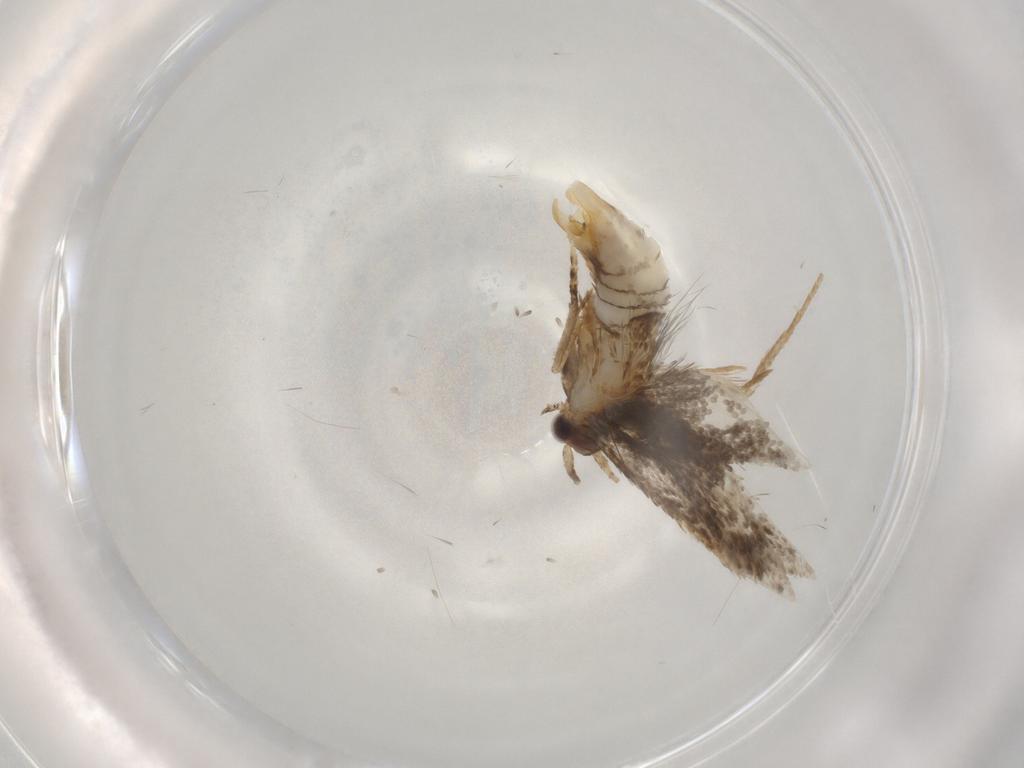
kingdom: Animalia
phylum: Arthropoda
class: Insecta
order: Lepidoptera
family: Tineidae
